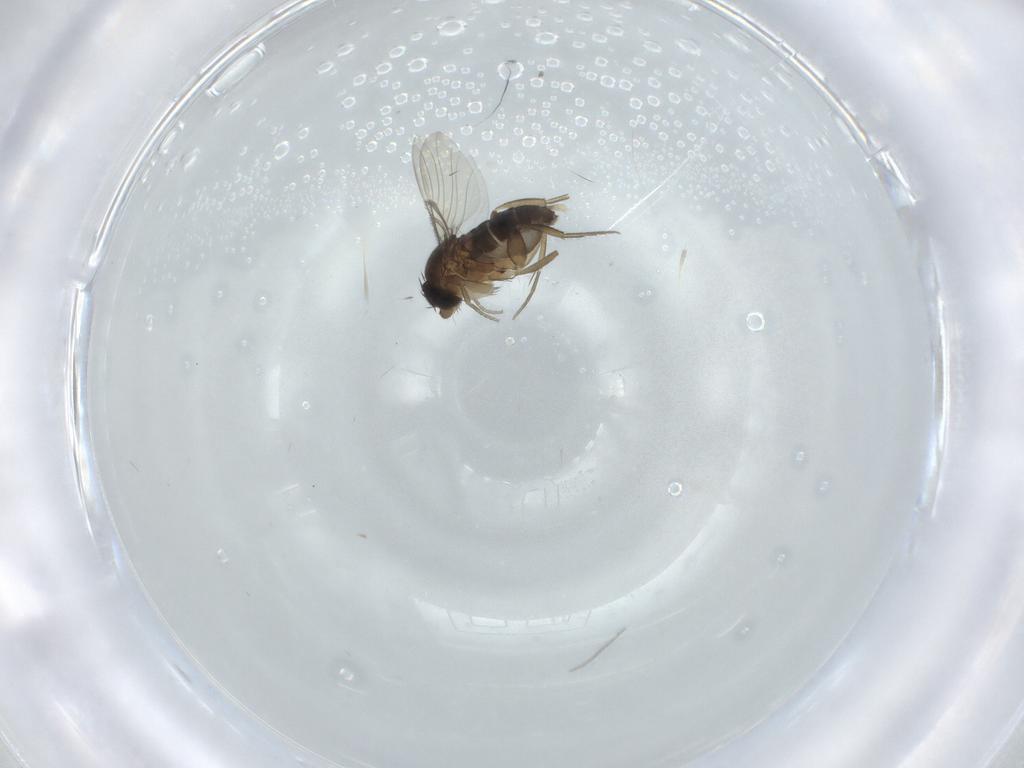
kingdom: Animalia
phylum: Arthropoda
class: Insecta
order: Diptera
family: Phoridae
